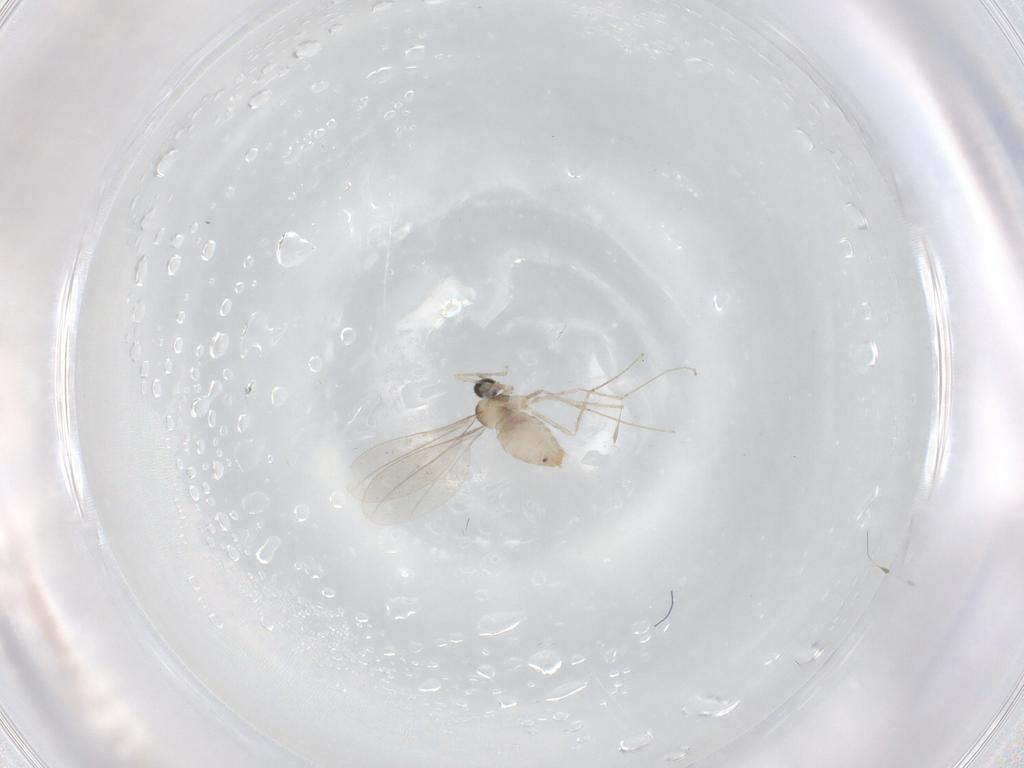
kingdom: Animalia
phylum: Arthropoda
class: Insecta
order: Diptera
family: Cecidomyiidae
